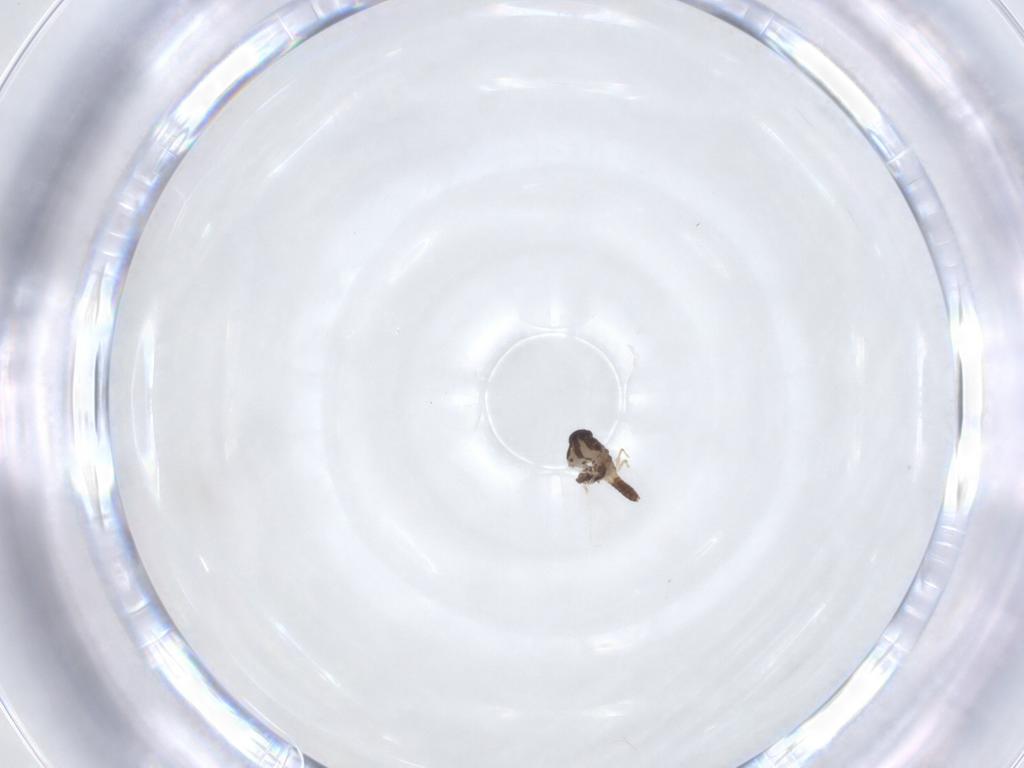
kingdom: Animalia
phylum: Arthropoda
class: Insecta
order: Diptera
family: Chironomidae
